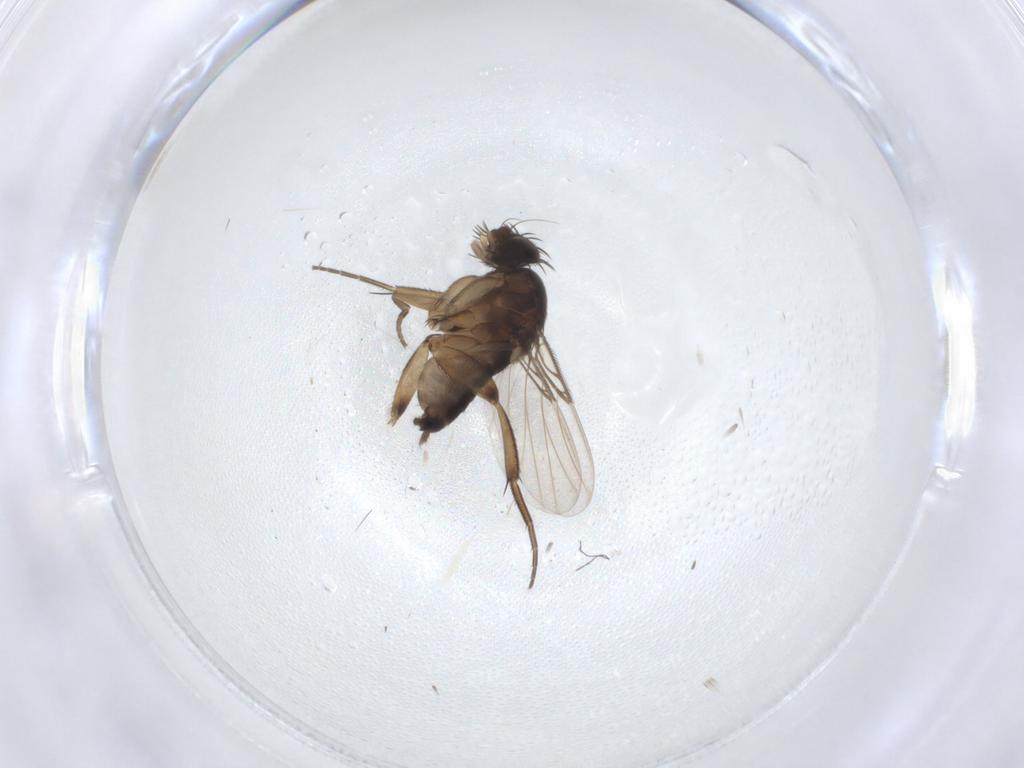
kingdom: Animalia
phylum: Arthropoda
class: Insecta
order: Diptera
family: Phoridae
